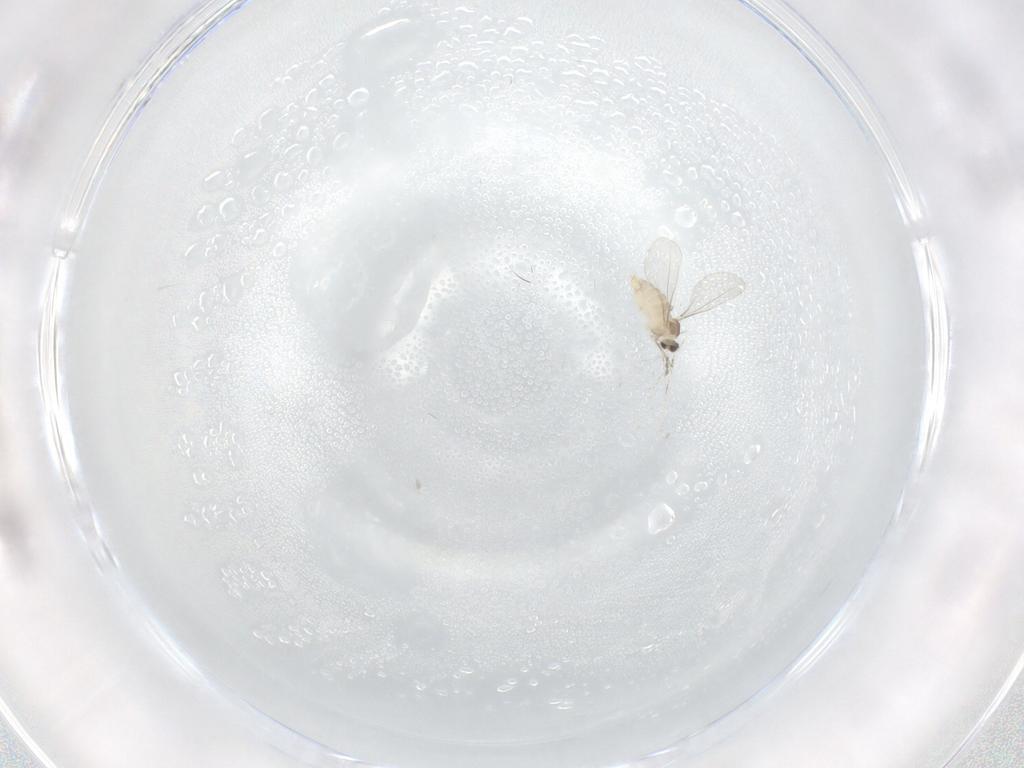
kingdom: Animalia
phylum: Arthropoda
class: Insecta
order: Diptera
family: Cecidomyiidae
